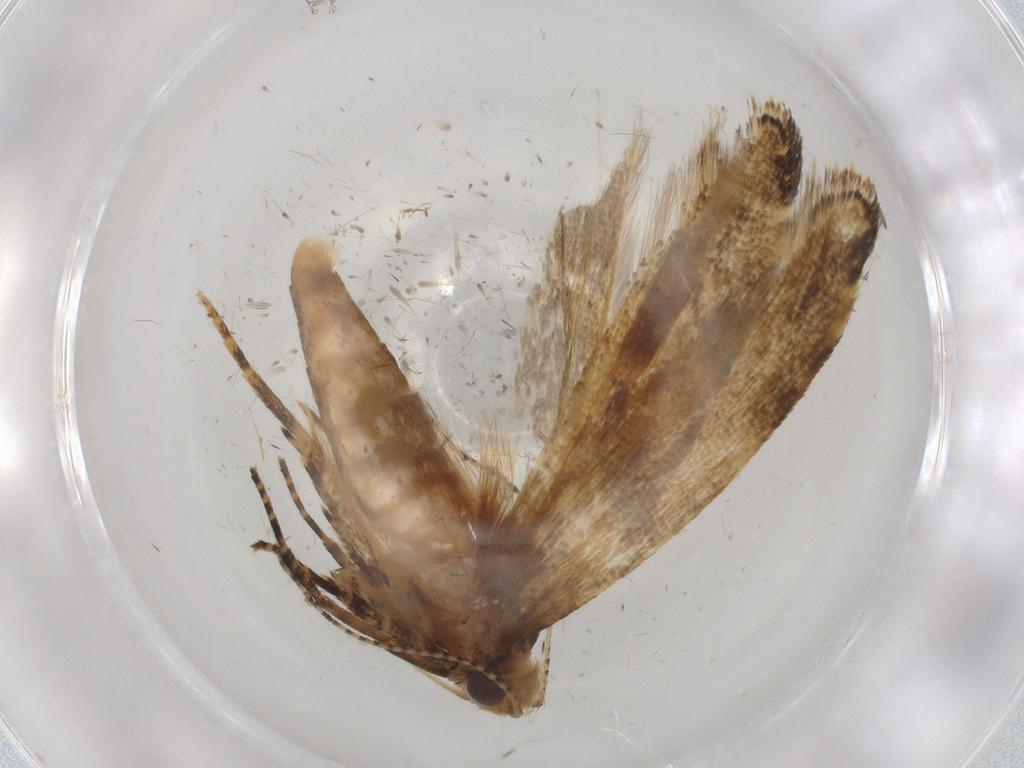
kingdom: Animalia
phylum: Arthropoda
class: Insecta
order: Lepidoptera
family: Gelechiidae
